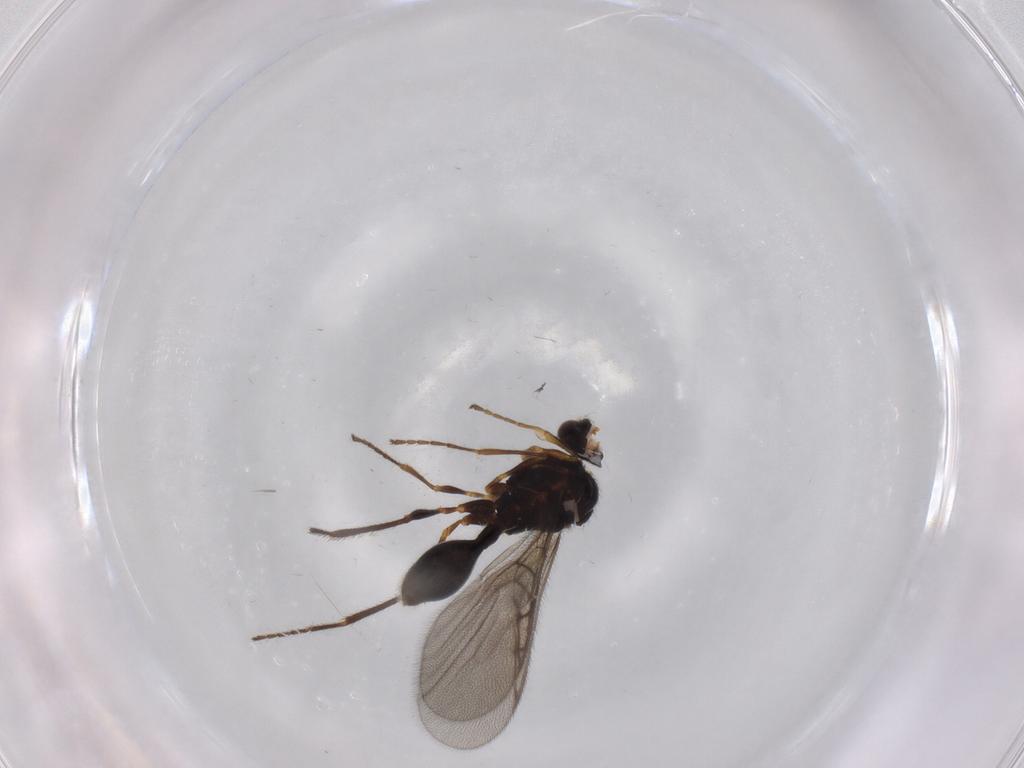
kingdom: Animalia
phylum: Arthropoda
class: Insecta
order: Hymenoptera
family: Diapriidae
